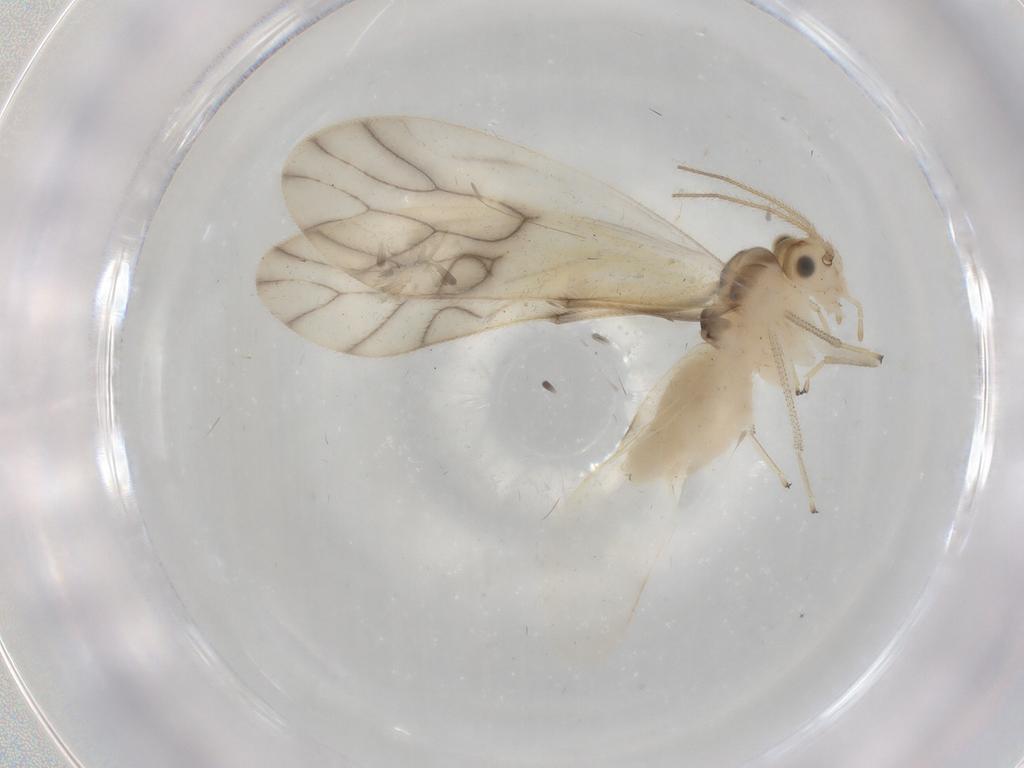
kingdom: Animalia
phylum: Arthropoda
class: Insecta
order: Psocodea
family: Caeciliusidae
